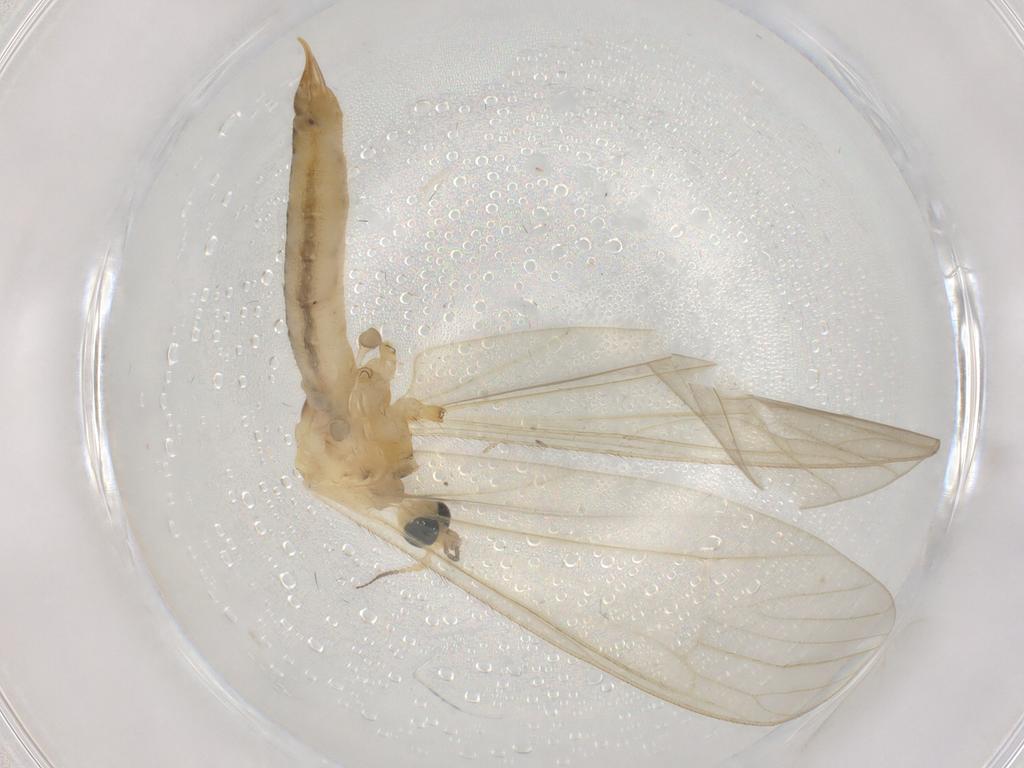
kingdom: Animalia
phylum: Arthropoda
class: Insecta
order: Diptera
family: Limoniidae
